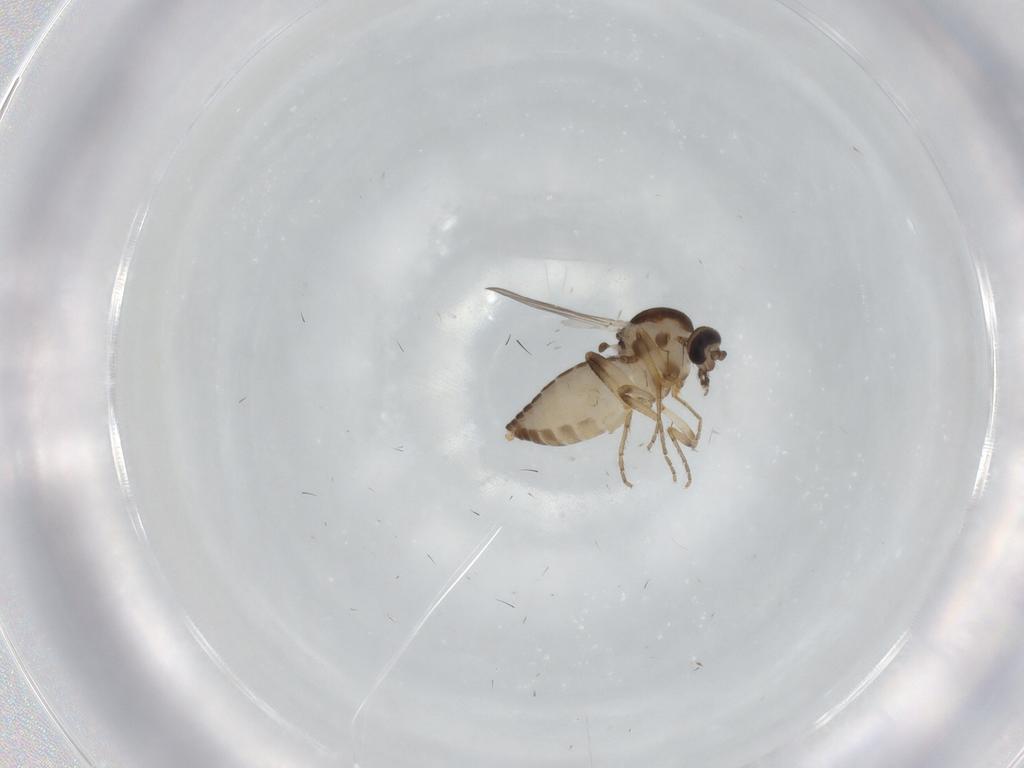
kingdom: Animalia
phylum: Arthropoda
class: Insecta
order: Diptera
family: Ceratopogonidae
